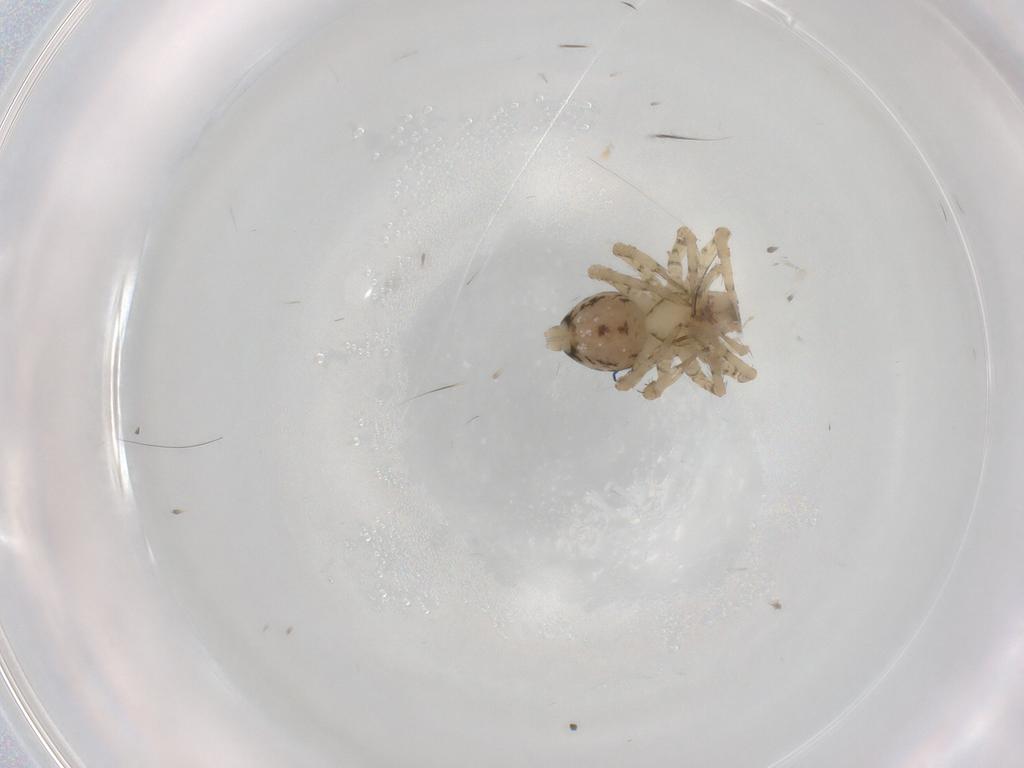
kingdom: Animalia
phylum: Arthropoda
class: Arachnida
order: Araneae
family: Amaurobiidae
